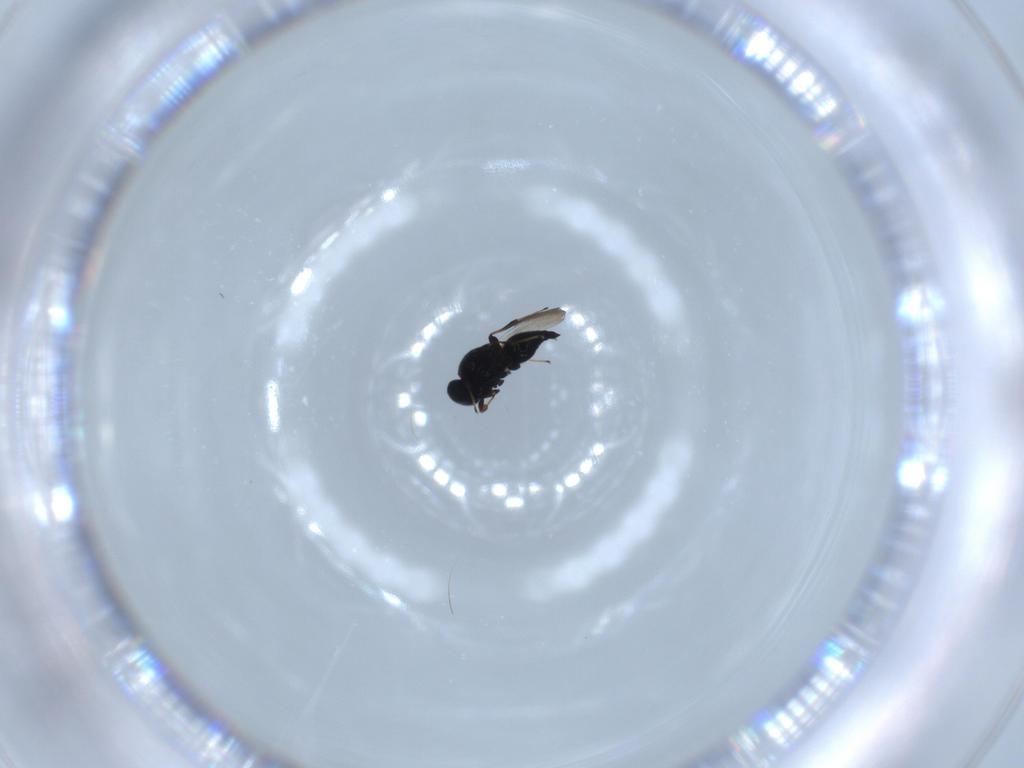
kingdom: Animalia
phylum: Arthropoda
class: Insecta
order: Hymenoptera
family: Platygastridae
